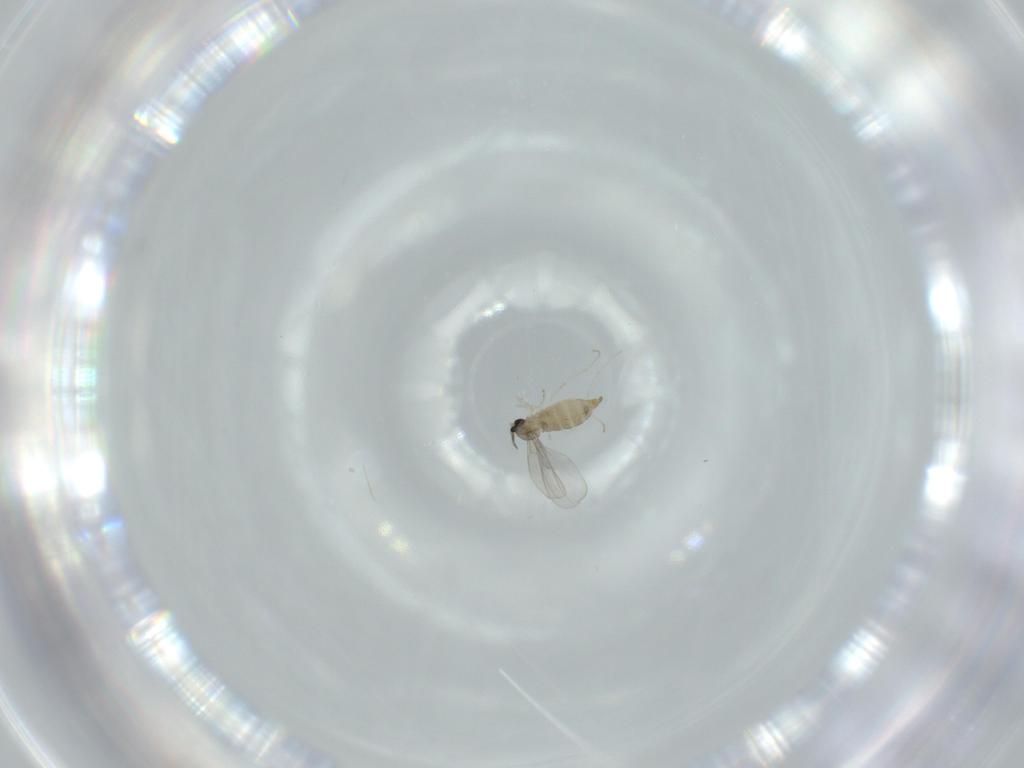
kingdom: Animalia
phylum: Arthropoda
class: Insecta
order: Diptera
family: Cecidomyiidae
